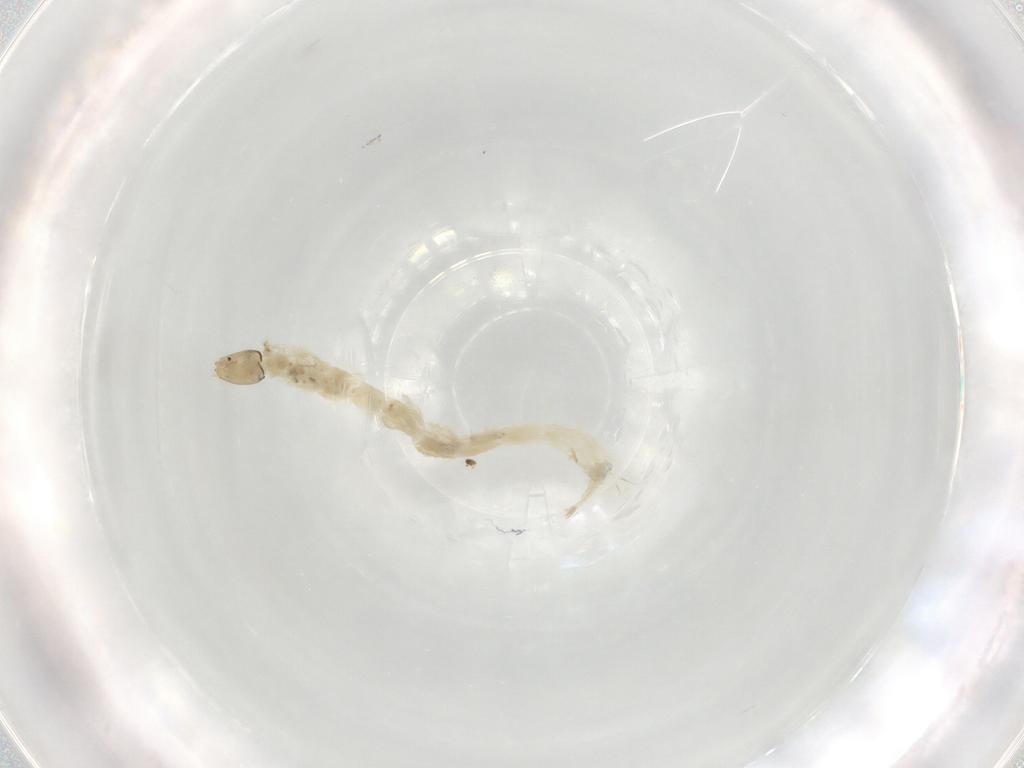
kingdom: Animalia
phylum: Arthropoda
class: Insecta
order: Diptera
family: Chironomidae
